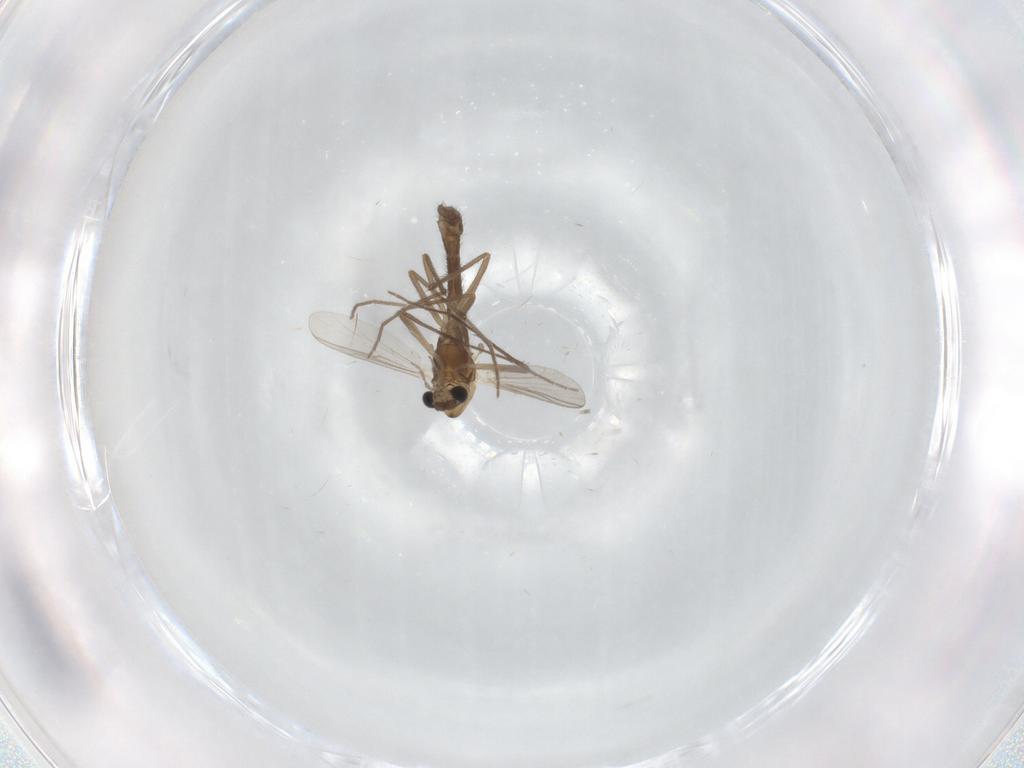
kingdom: Animalia
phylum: Arthropoda
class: Insecta
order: Diptera
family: Chironomidae
